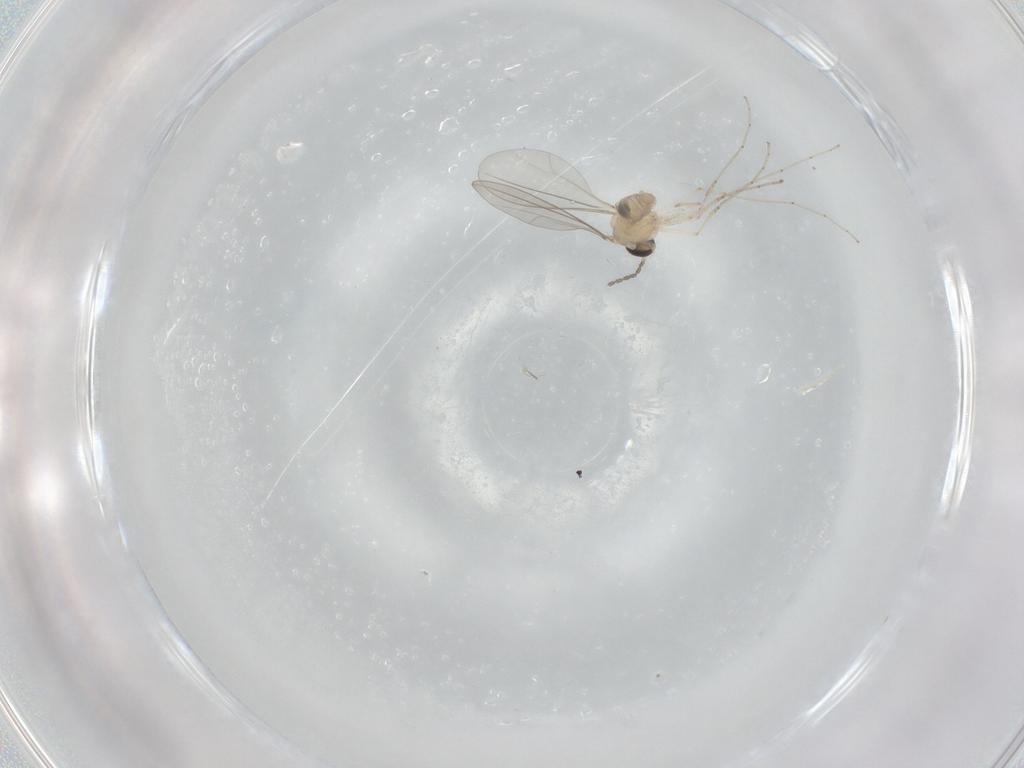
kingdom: Animalia
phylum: Arthropoda
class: Insecta
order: Diptera
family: Cecidomyiidae
